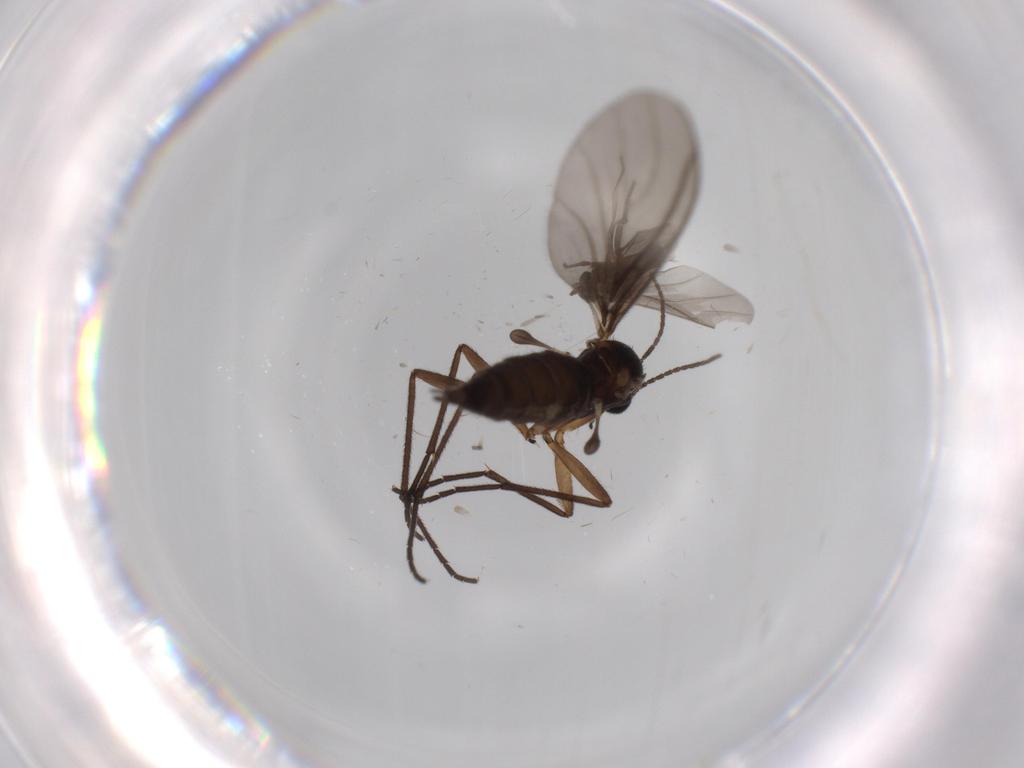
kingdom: Animalia
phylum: Arthropoda
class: Insecta
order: Diptera
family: Phoridae
